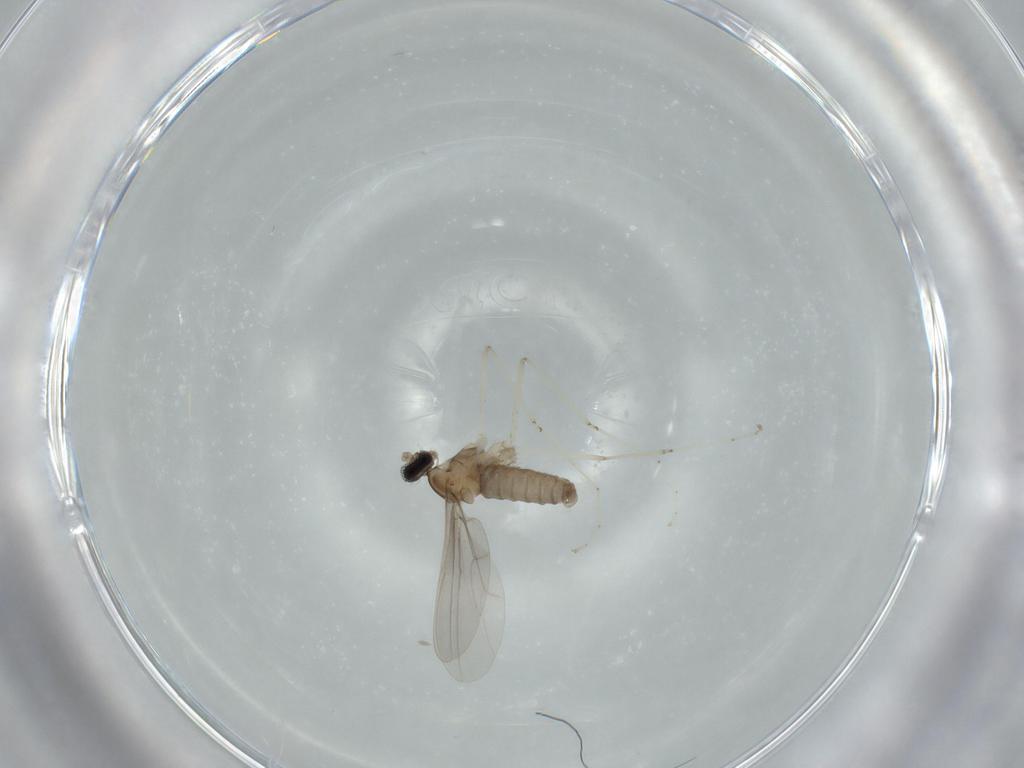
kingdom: Animalia
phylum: Arthropoda
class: Insecta
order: Diptera
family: Cecidomyiidae
